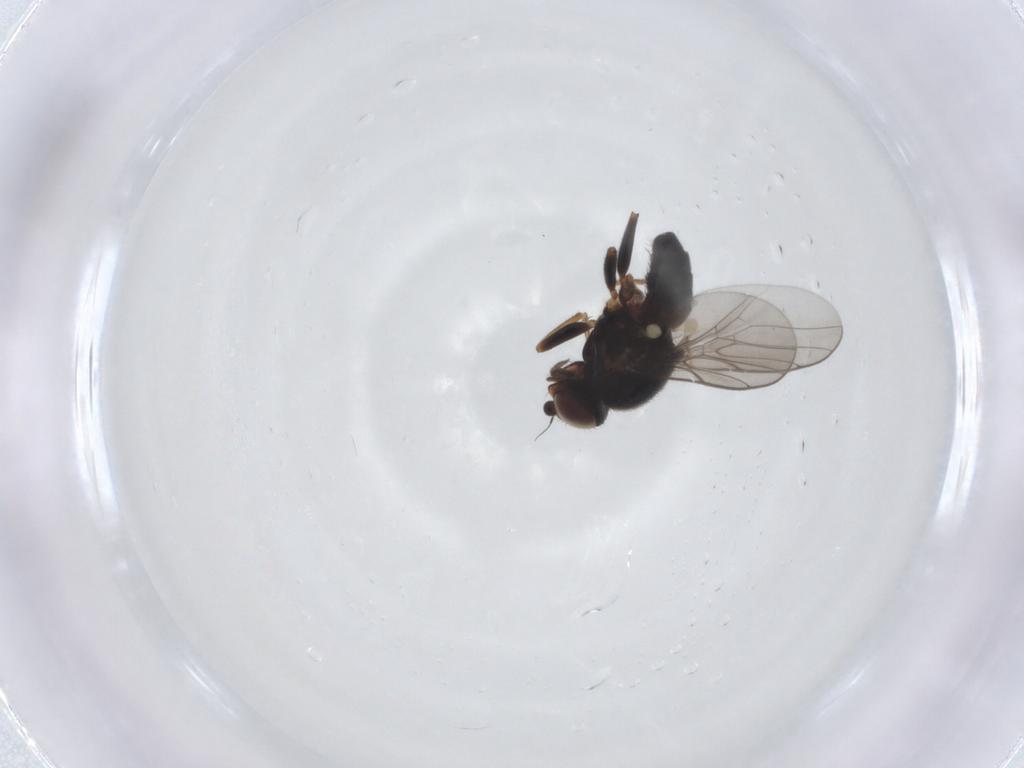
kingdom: Animalia
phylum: Arthropoda
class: Insecta
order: Diptera
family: Chloropidae
